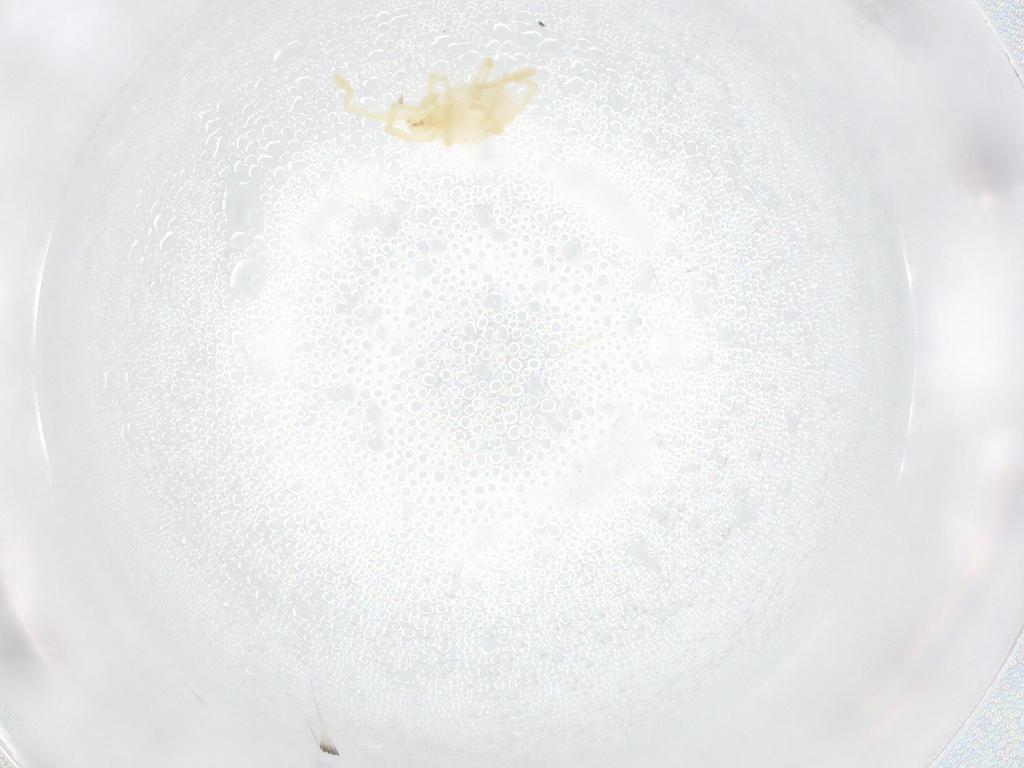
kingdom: Animalia
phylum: Arthropoda
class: Arachnida
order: Trombidiformes
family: Erythraeidae
